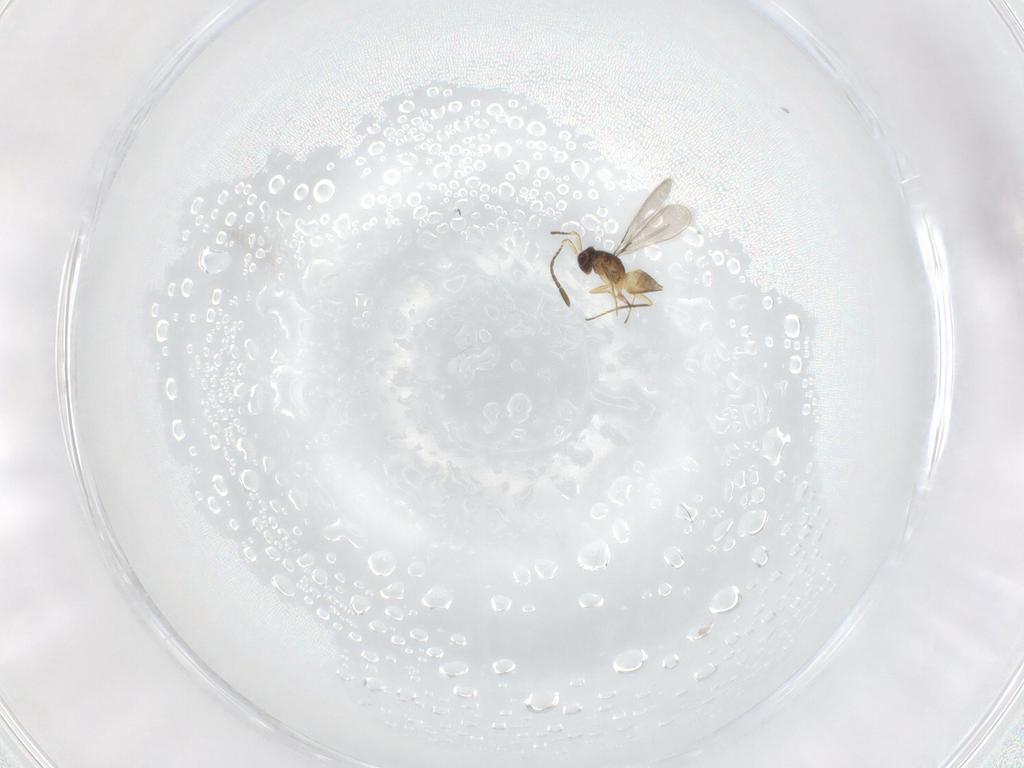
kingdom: Animalia
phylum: Arthropoda
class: Insecta
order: Hymenoptera
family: Mymaridae
